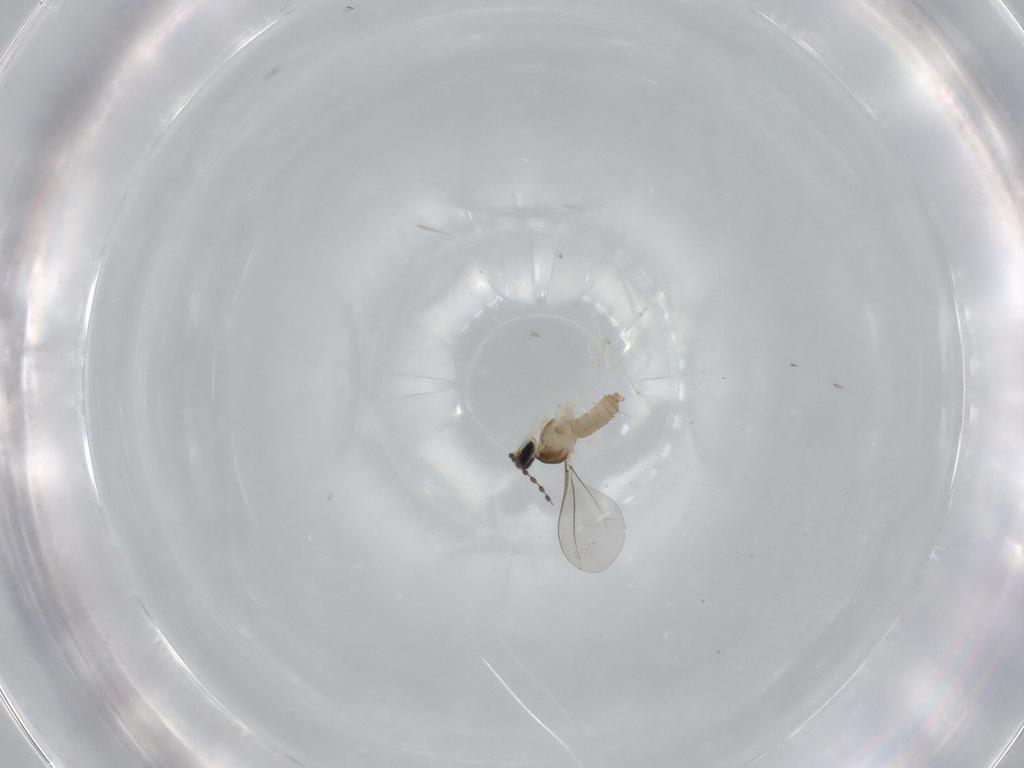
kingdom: Animalia
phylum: Arthropoda
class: Insecta
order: Diptera
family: Cecidomyiidae
